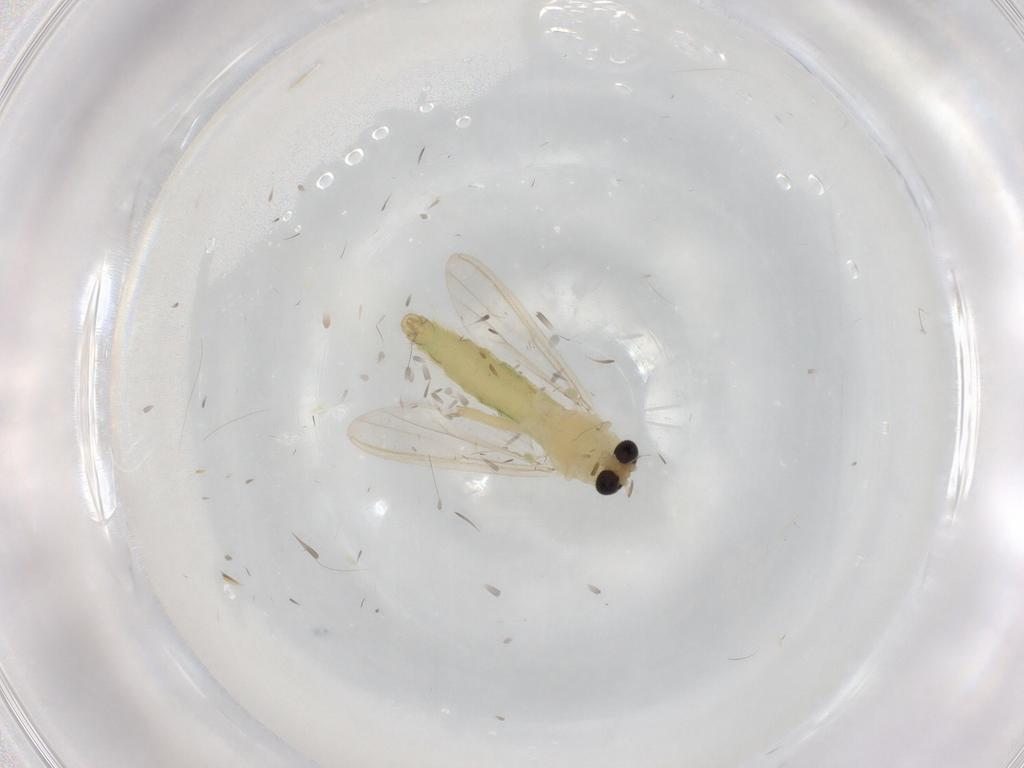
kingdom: Animalia
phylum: Arthropoda
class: Insecta
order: Diptera
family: Chironomidae
